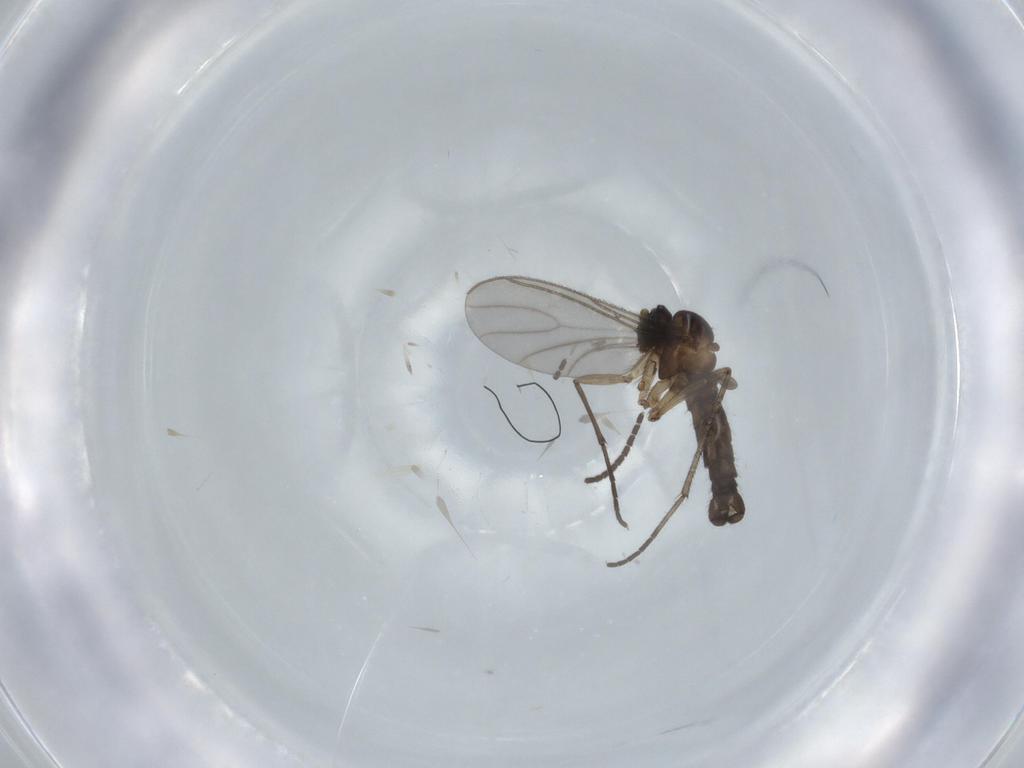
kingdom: Animalia
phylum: Arthropoda
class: Insecta
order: Diptera
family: Sciaridae
